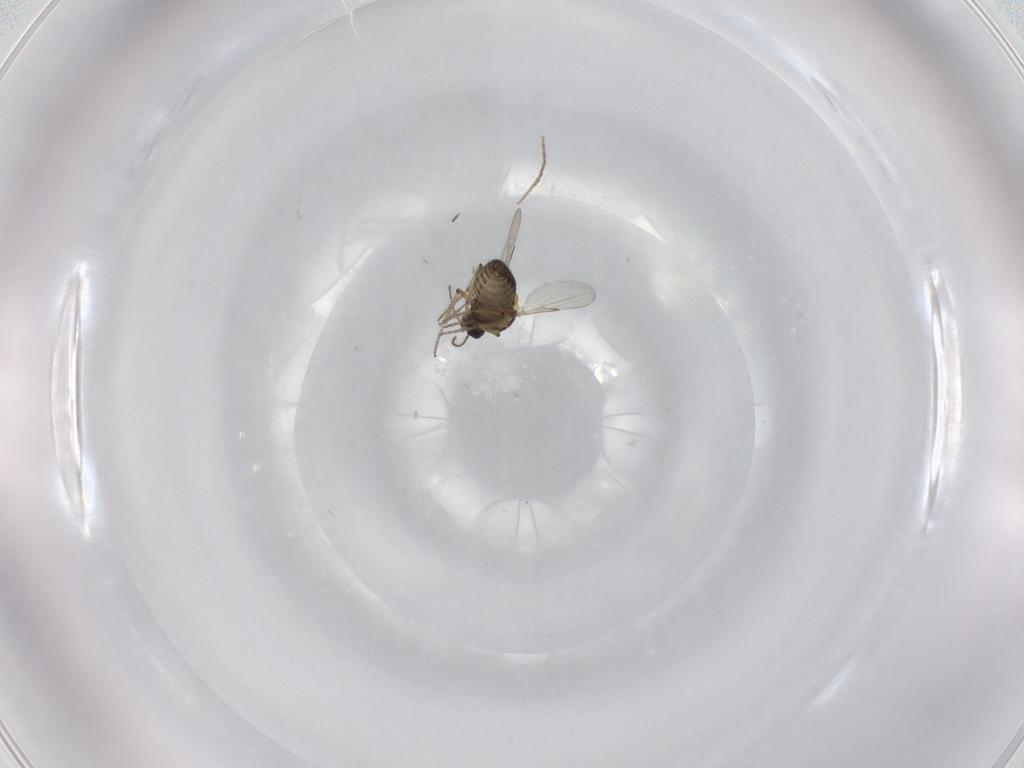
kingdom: Animalia
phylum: Arthropoda
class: Insecta
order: Diptera
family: Ceratopogonidae
